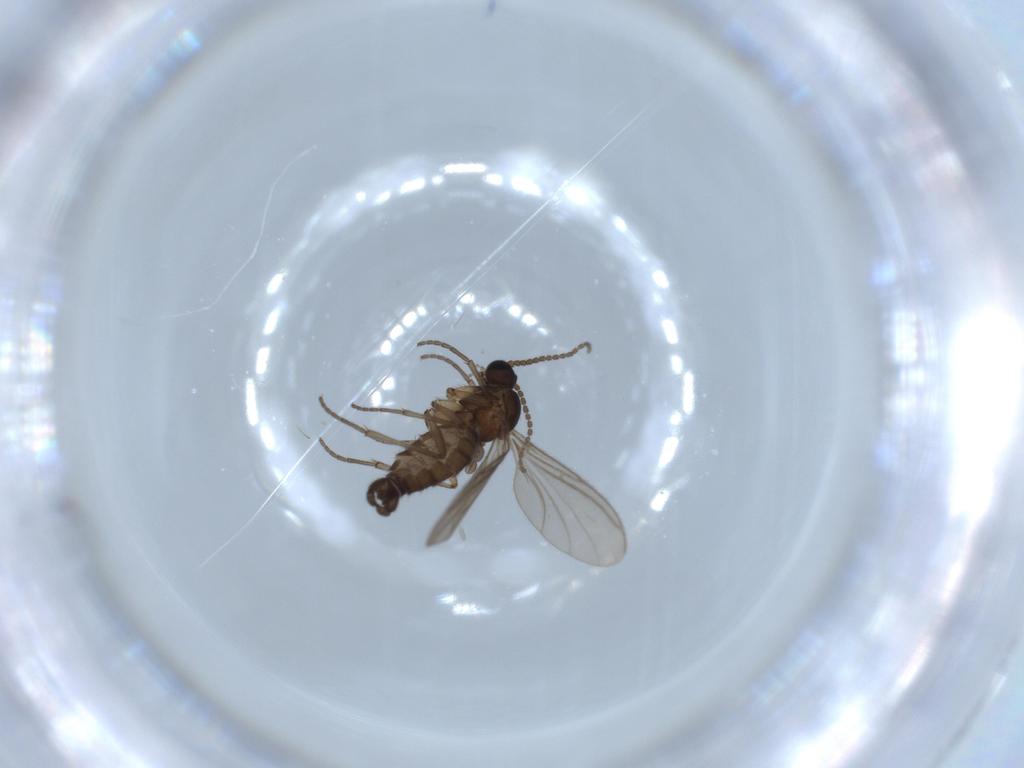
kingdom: Animalia
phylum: Arthropoda
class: Insecta
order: Diptera
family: Sciaridae
